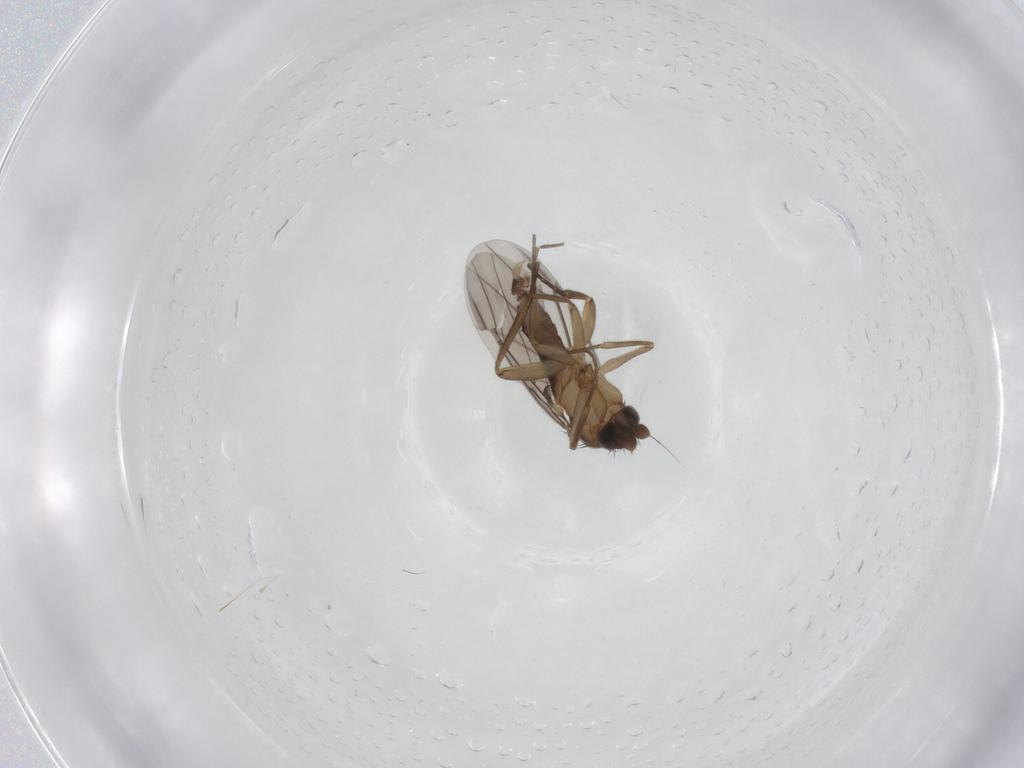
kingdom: Animalia
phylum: Arthropoda
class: Insecta
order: Diptera
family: Phoridae
